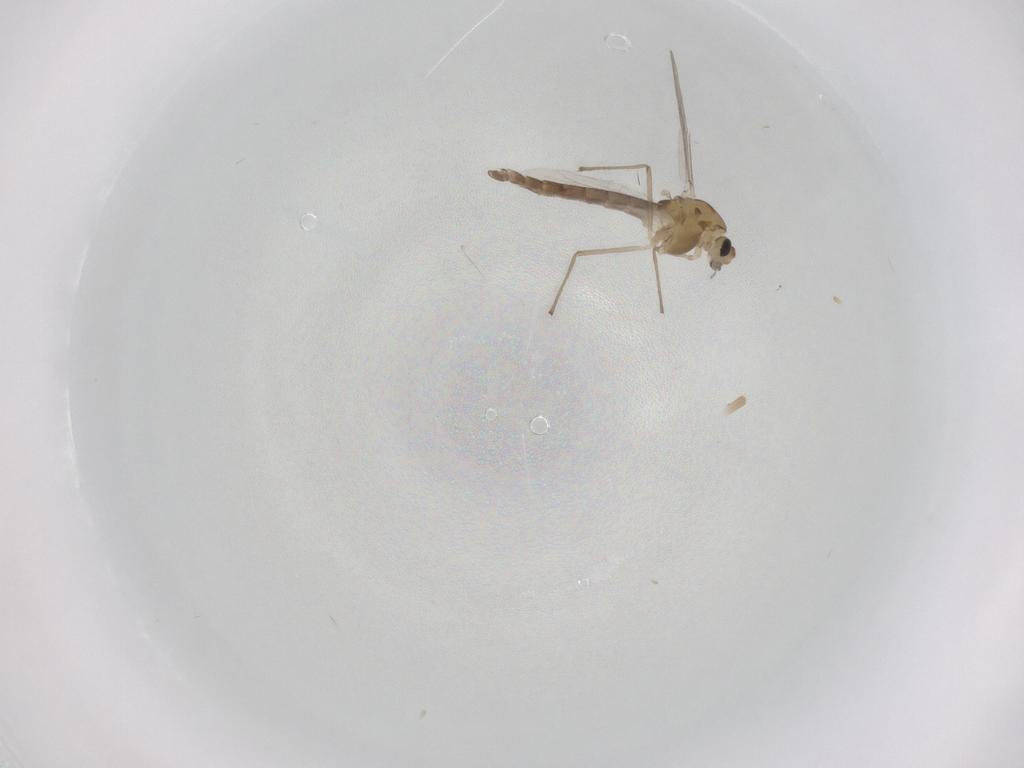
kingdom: Animalia
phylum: Arthropoda
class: Insecta
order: Diptera
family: Chironomidae
